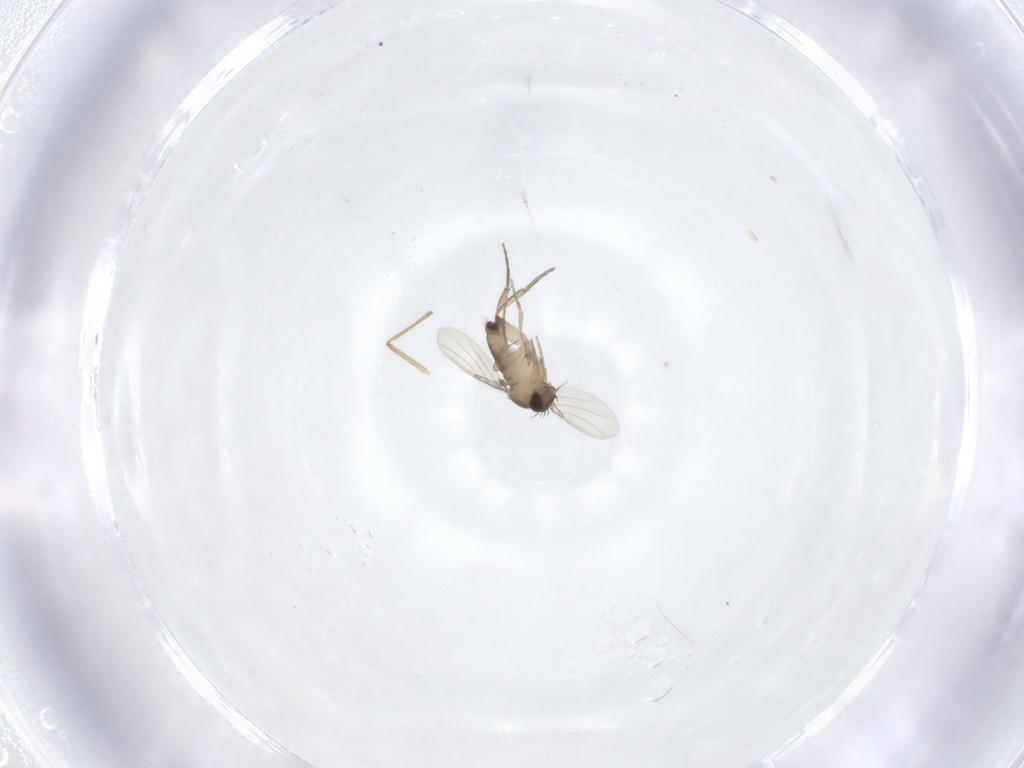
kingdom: Animalia
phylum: Arthropoda
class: Insecta
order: Diptera
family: Phoridae
